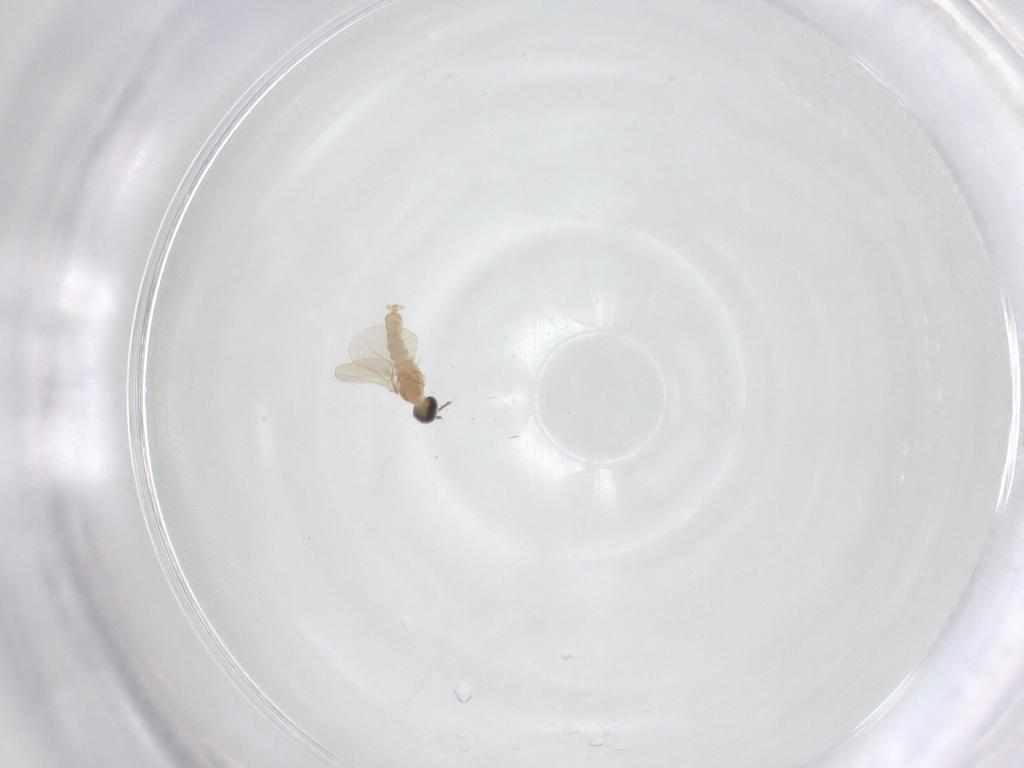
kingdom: Animalia
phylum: Arthropoda
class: Insecta
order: Diptera
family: Cecidomyiidae
